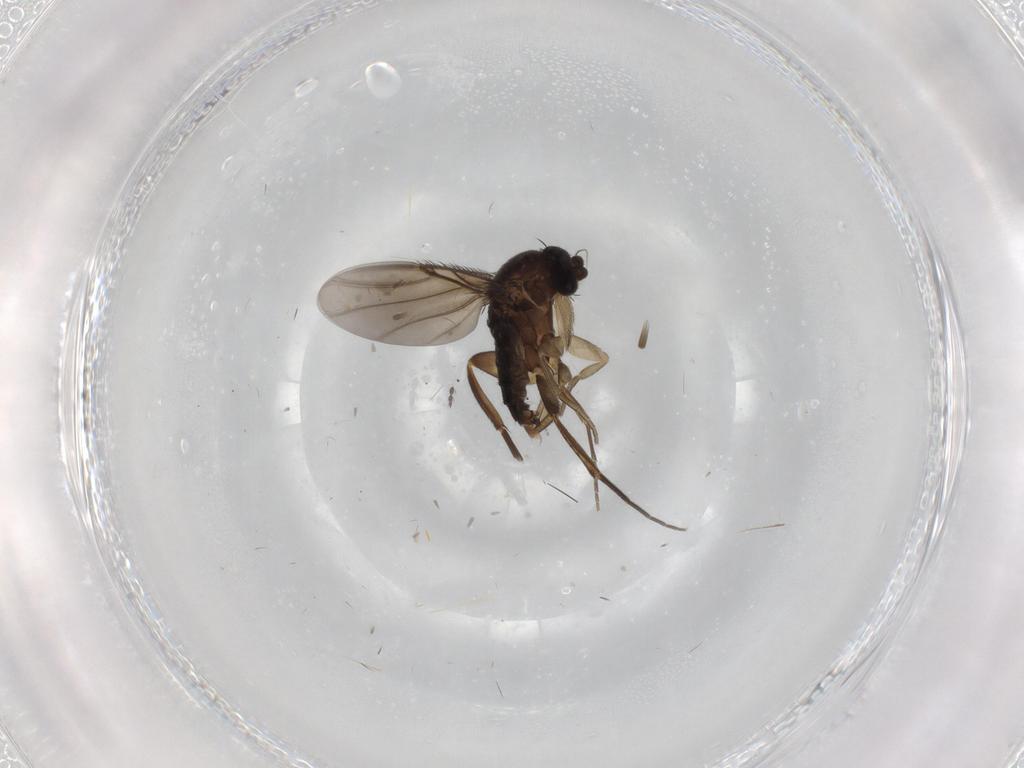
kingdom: Animalia
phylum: Arthropoda
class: Insecta
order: Diptera
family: Phoridae
